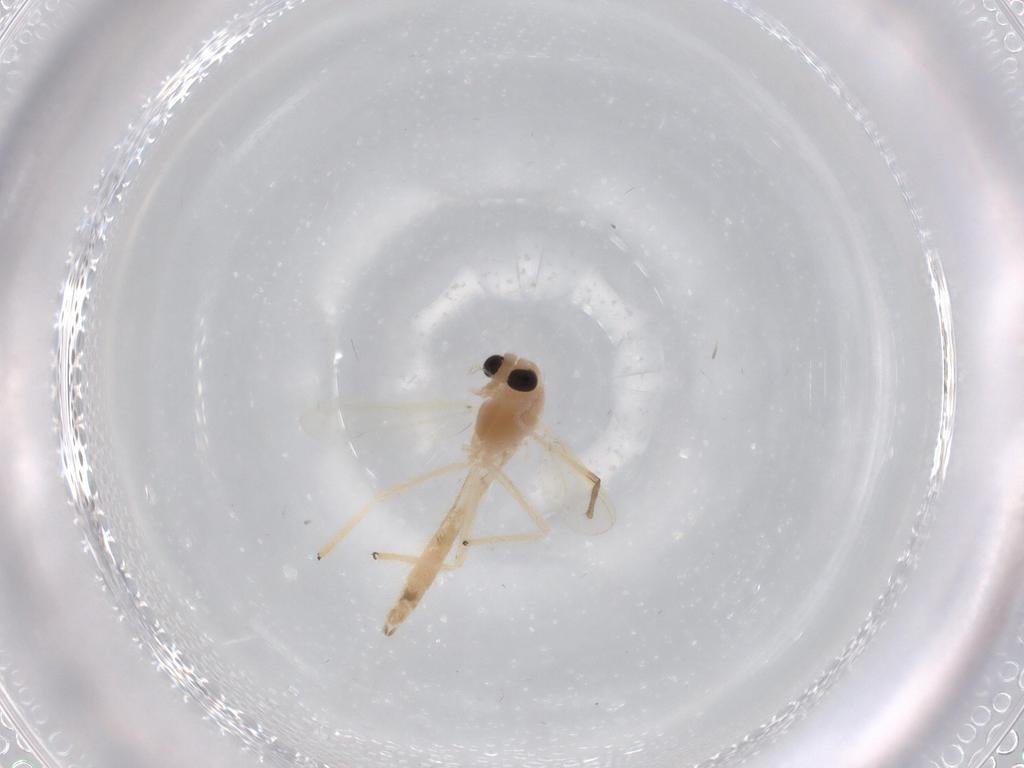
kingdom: Animalia
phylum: Arthropoda
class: Insecta
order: Diptera
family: Chironomidae
